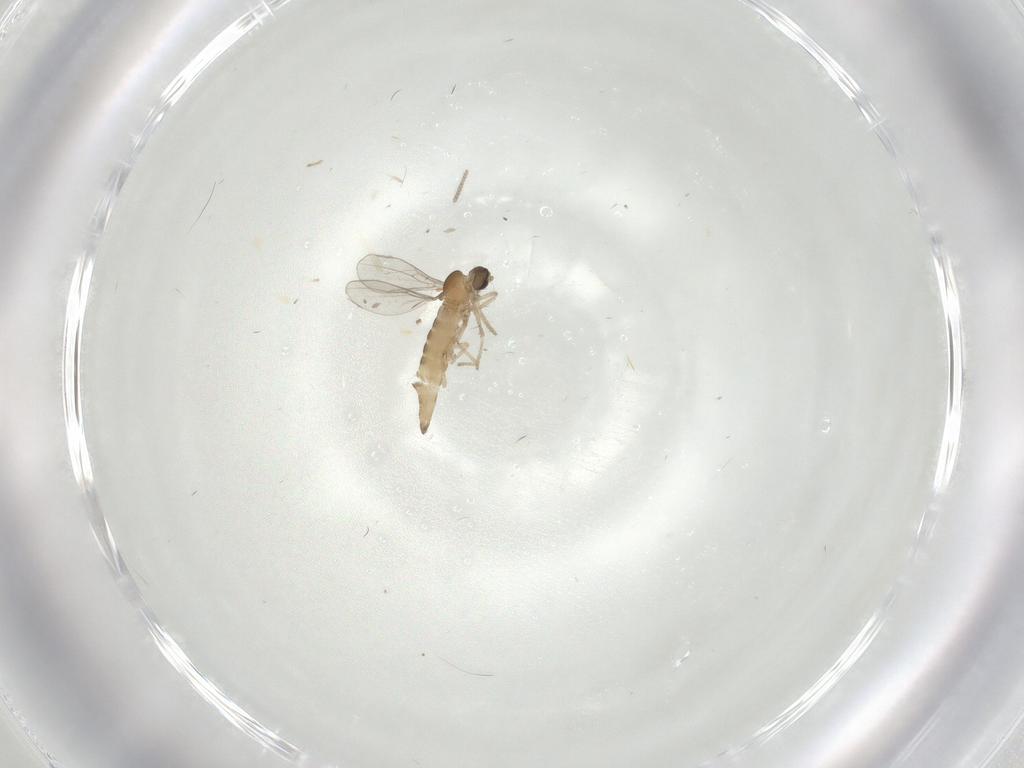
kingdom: Animalia
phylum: Arthropoda
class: Insecta
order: Diptera
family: Cecidomyiidae
